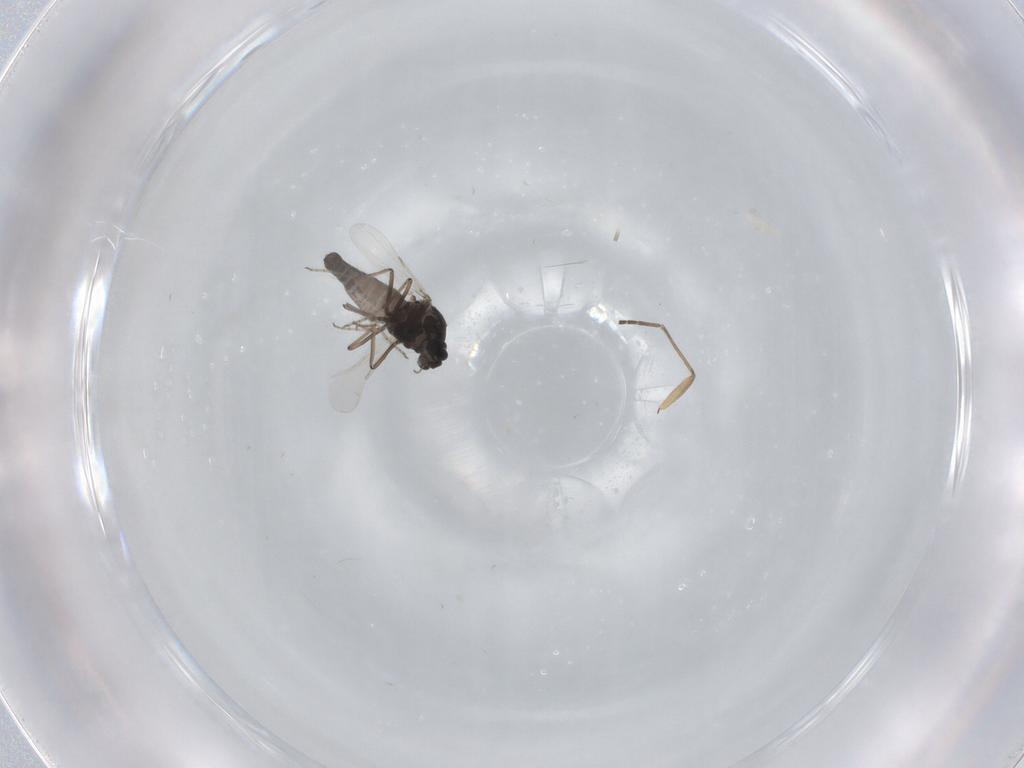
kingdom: Animalia
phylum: Arthropoda
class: Insecta
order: Diptera
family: Ceratopogonidae
